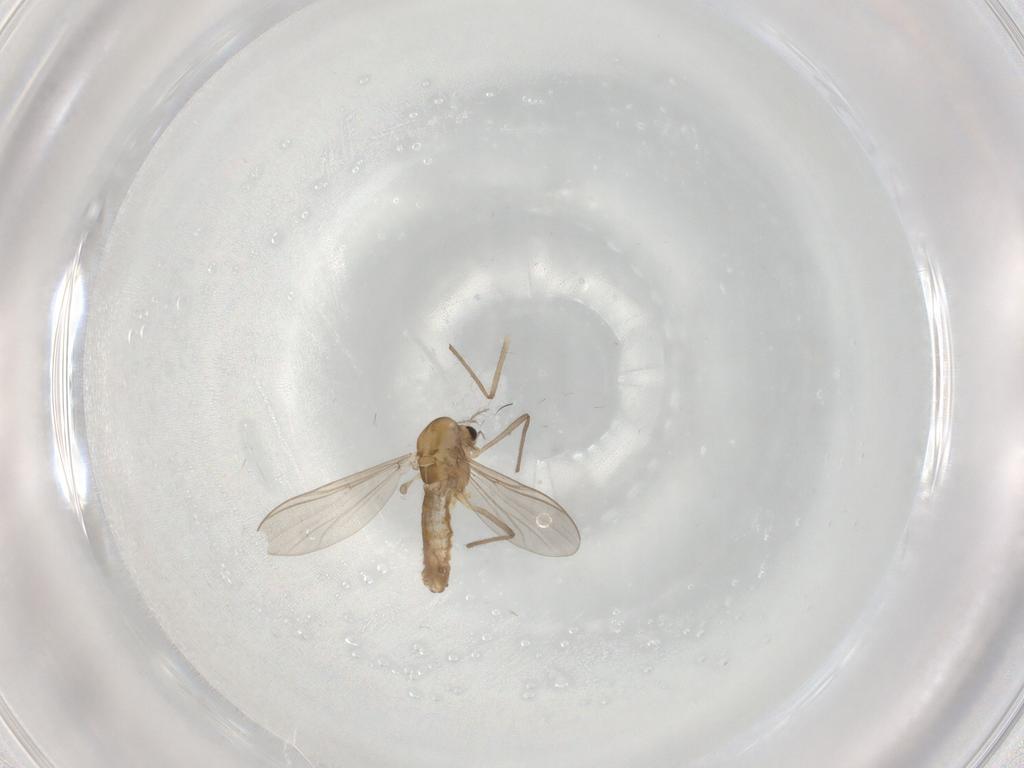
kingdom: Animalia
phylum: Arthropoda
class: Insecta
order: Diptera
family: Chironomidae
